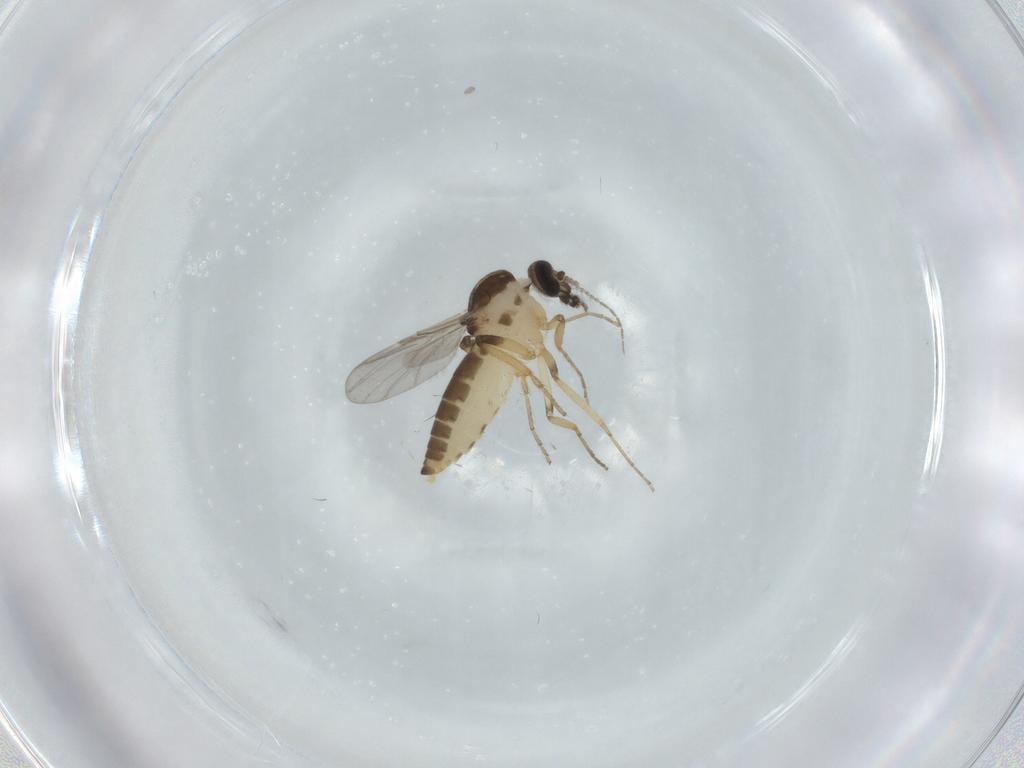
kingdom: Animalia
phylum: Arthropoda
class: Insecta
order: Diptera
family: Ceratopogonidae
